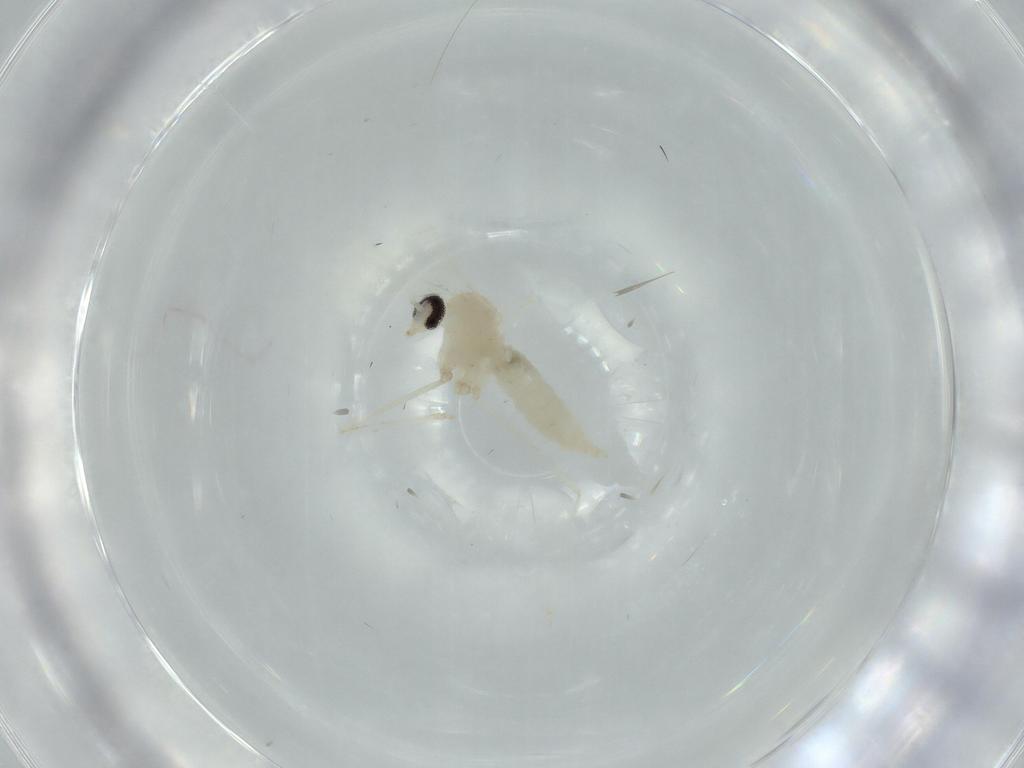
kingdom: Animalia
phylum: Arthropoda
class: Insecta
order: Diptera
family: Cecidomyiidae
